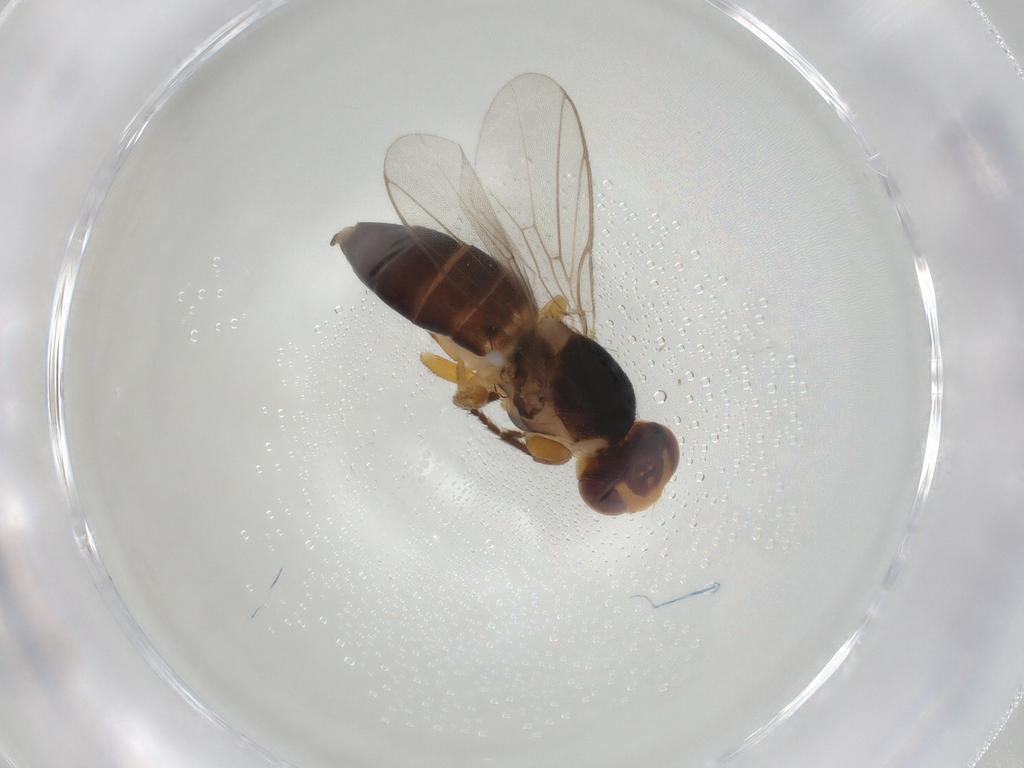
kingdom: Animalia
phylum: Arthropoda
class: Insecta
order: Diptera
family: Chloropidae
